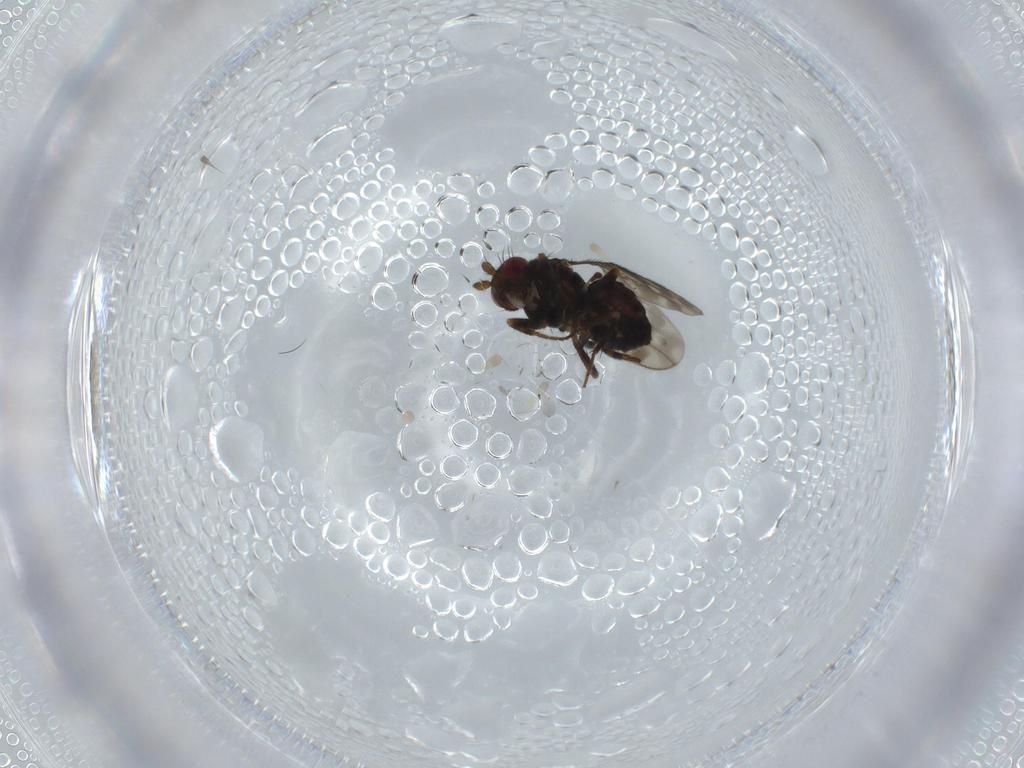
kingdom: Animalia
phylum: Arthropoda
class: Insecta
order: Diptera
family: Sphaeroceridae
